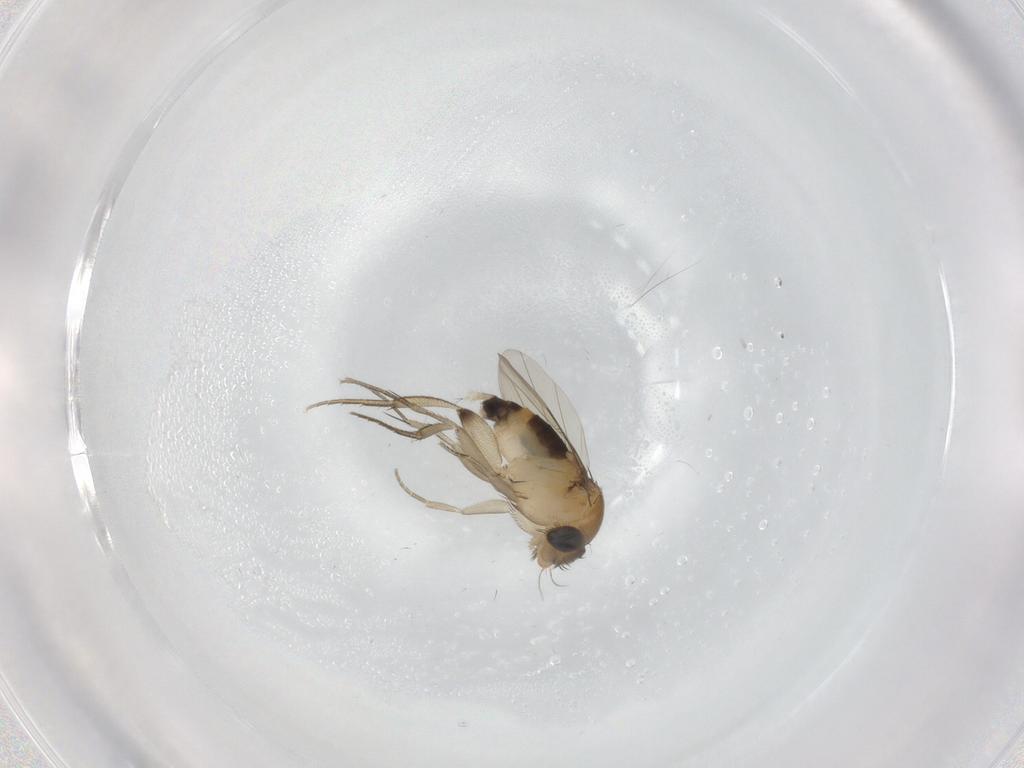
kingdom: Animalia
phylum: Arthropoda
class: Insecta
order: Diptera
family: Phoridae
